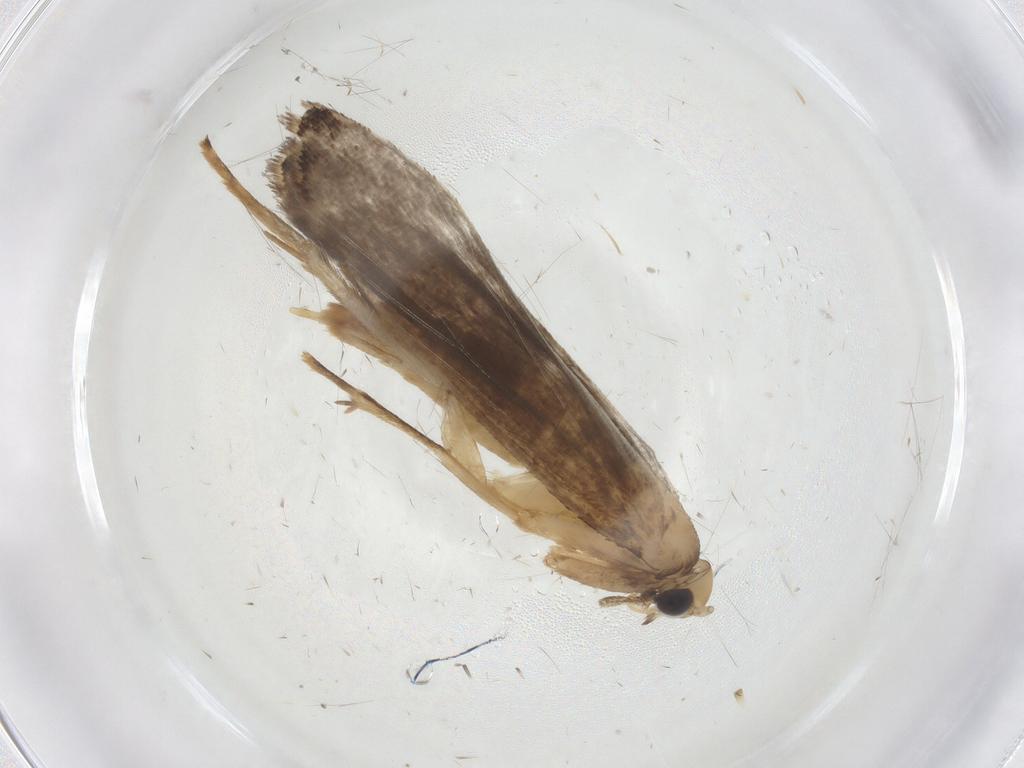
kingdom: Animalia
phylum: Arthropoda
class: Insecta
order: Lepidoptera
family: Tineidae
